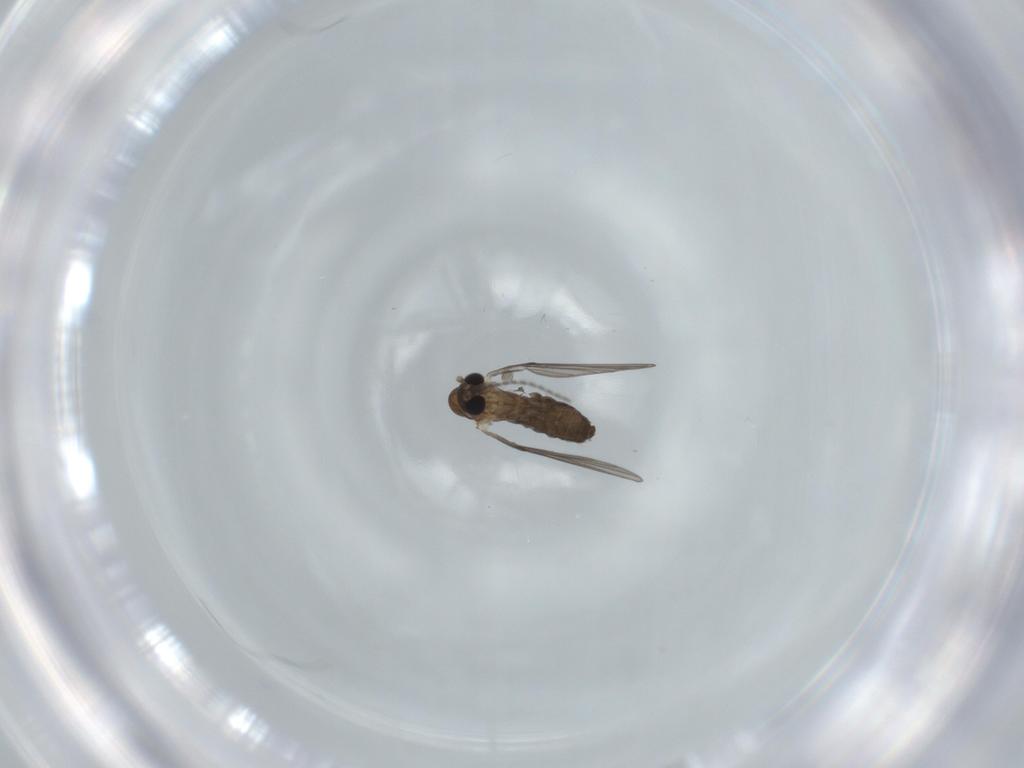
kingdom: Animalia
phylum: Arthropoda
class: Insecta
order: Diptera
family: Psychodidae
